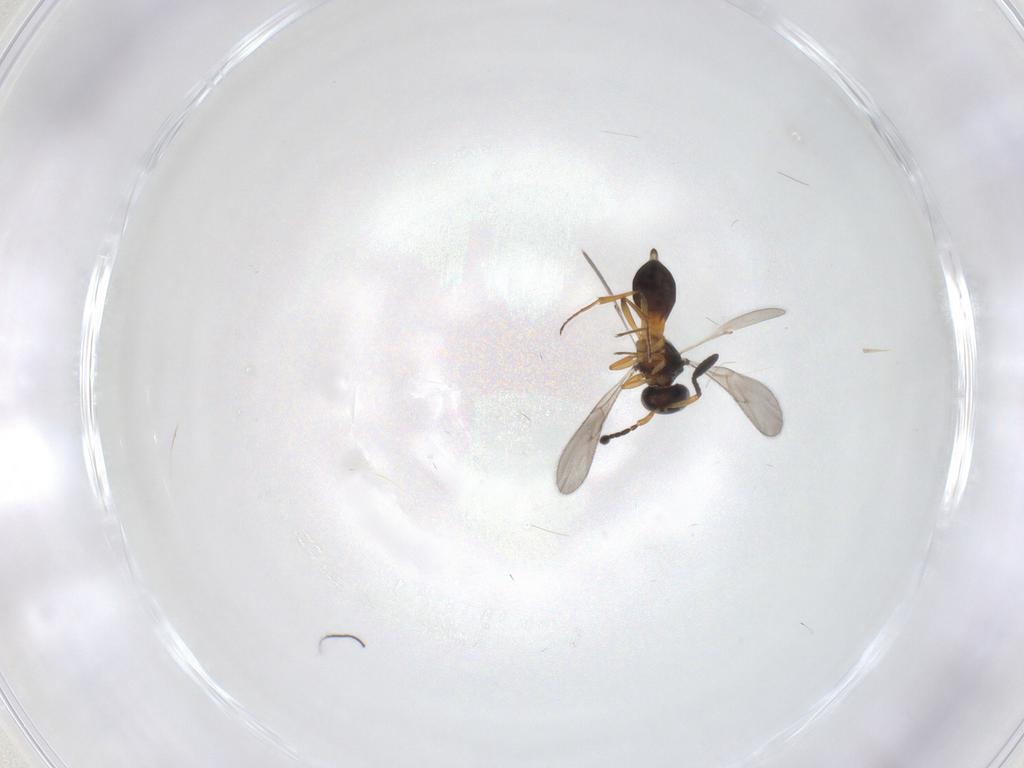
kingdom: Animalia
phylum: Arthropoda
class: Insecta
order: Hymenoptera
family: Scelionidae
